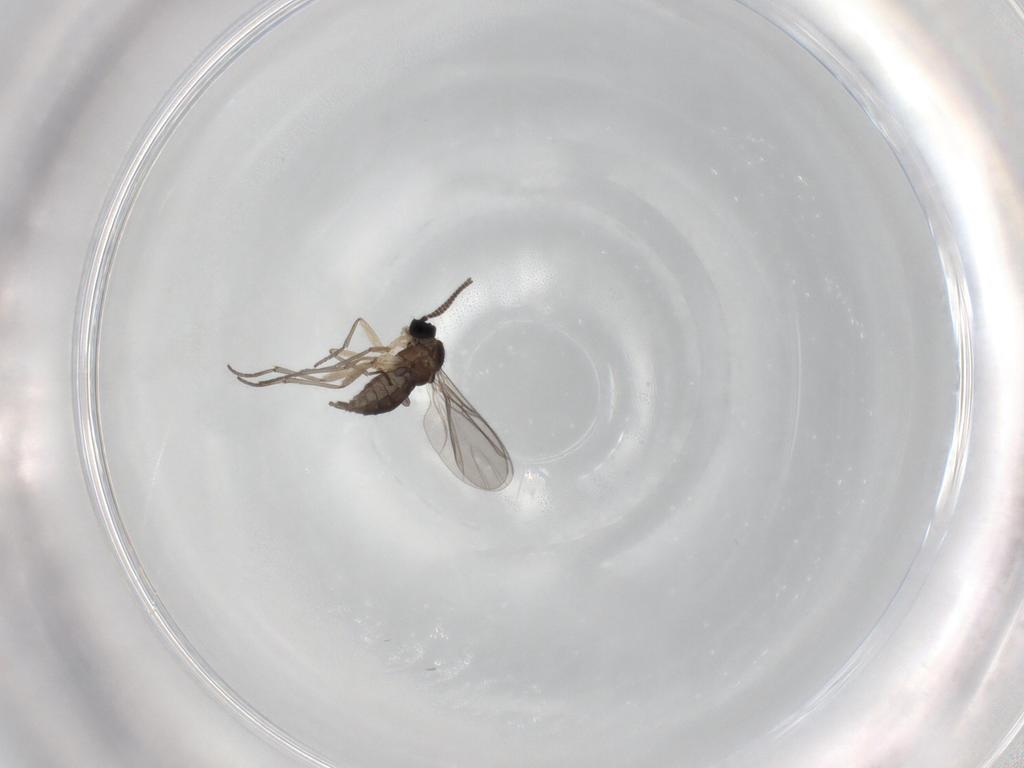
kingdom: Animalia
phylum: Arthropoda
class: Insecta
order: Diptera
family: Sciaridae
